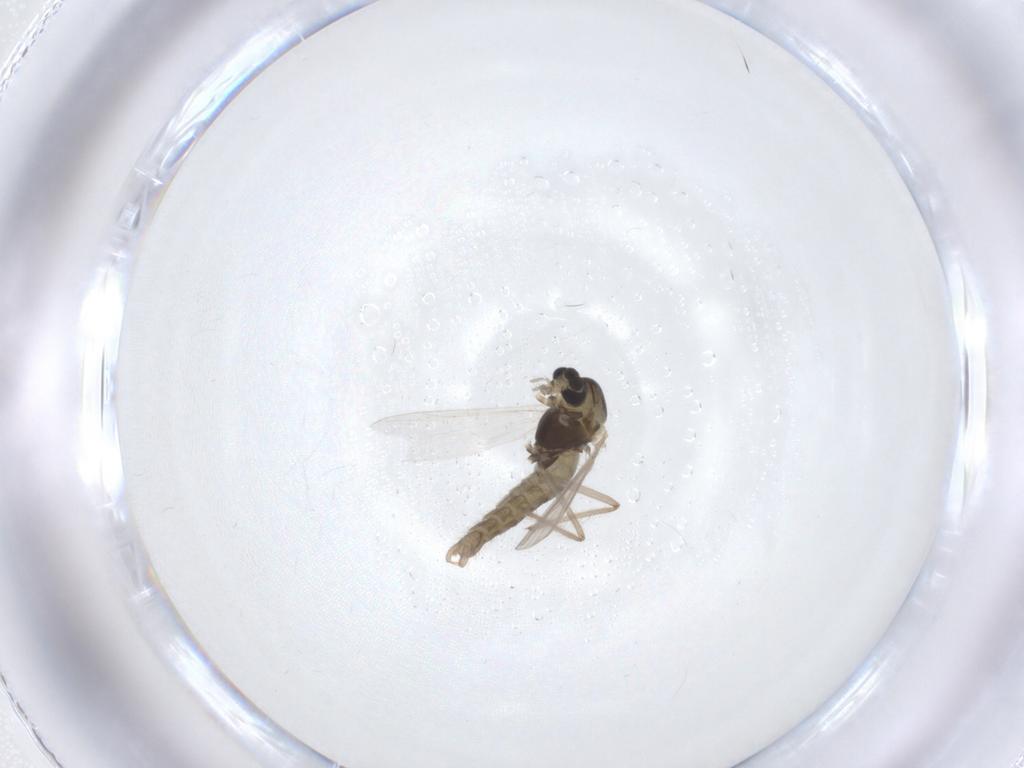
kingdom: Animalia
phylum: Arthropoda
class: Insecta
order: Diptera
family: Chironomidae
